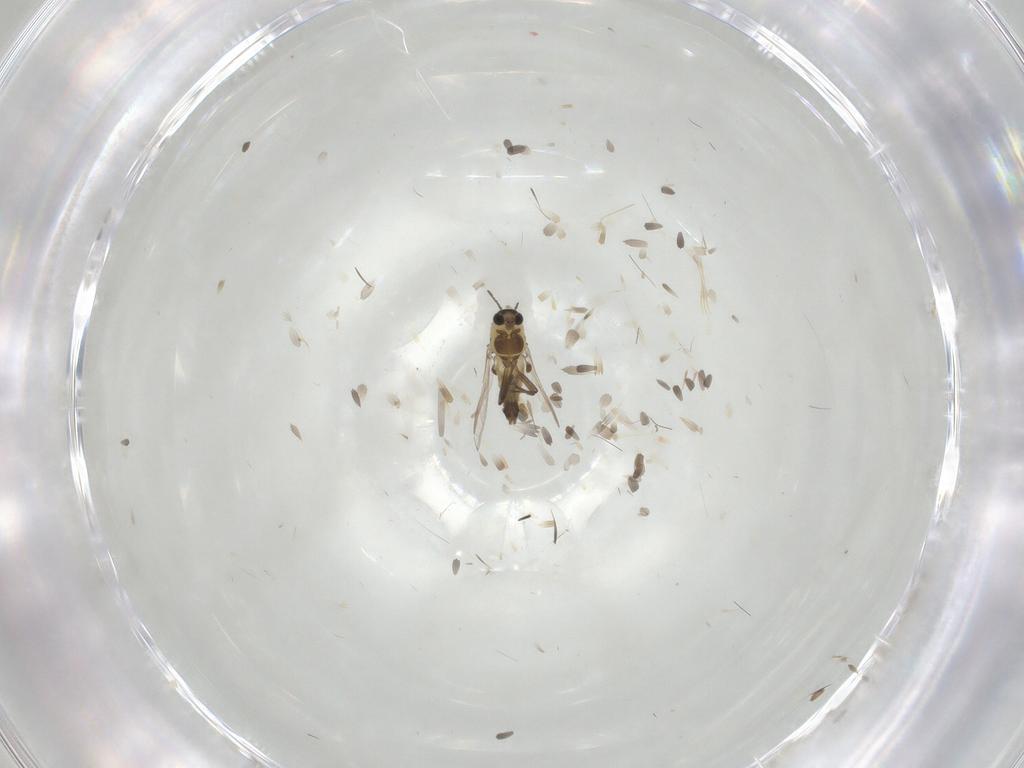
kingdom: Animalia
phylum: Arthropoda
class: Insecta
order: Diptera
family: Chironomidae
